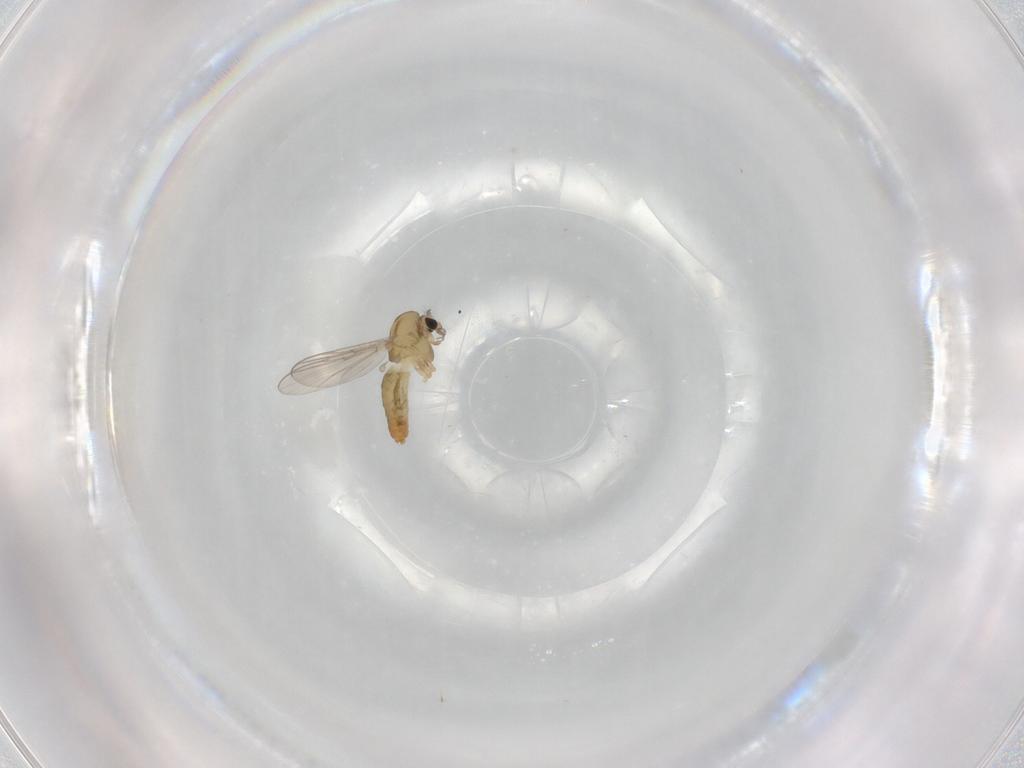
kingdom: Animalia
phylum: Arthropoda
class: Insecta
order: Diptera
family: Chironomidae
